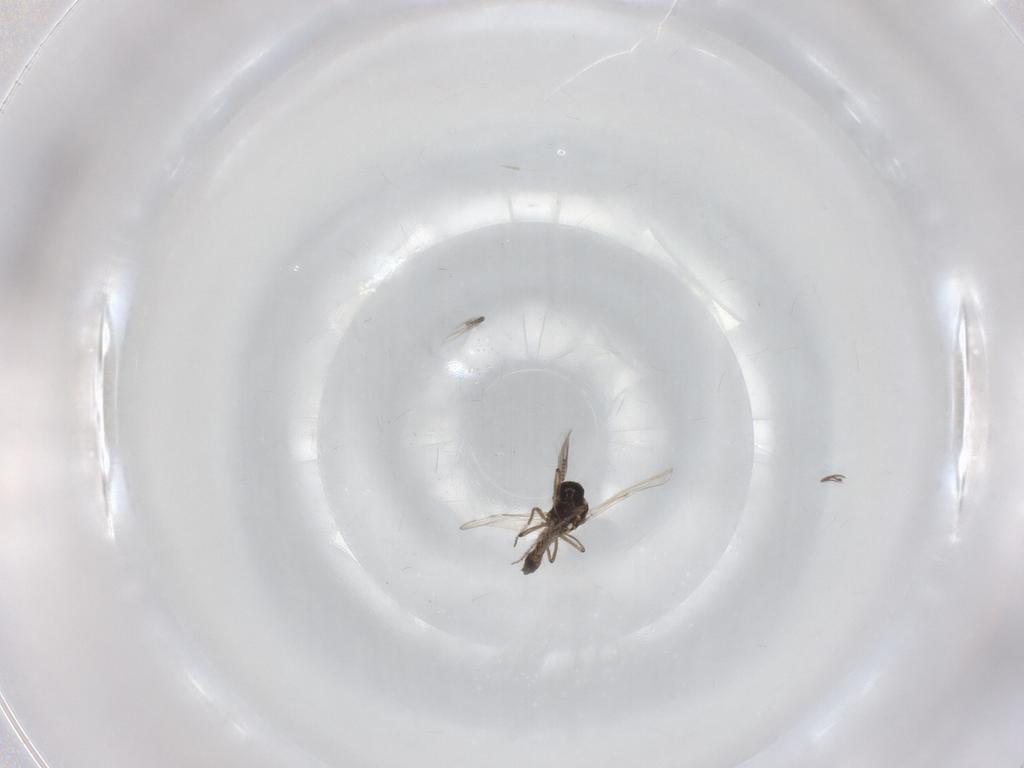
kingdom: Animalia
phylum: Arthropoda
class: Insecta
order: Diptera
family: Ceratopogonidae
